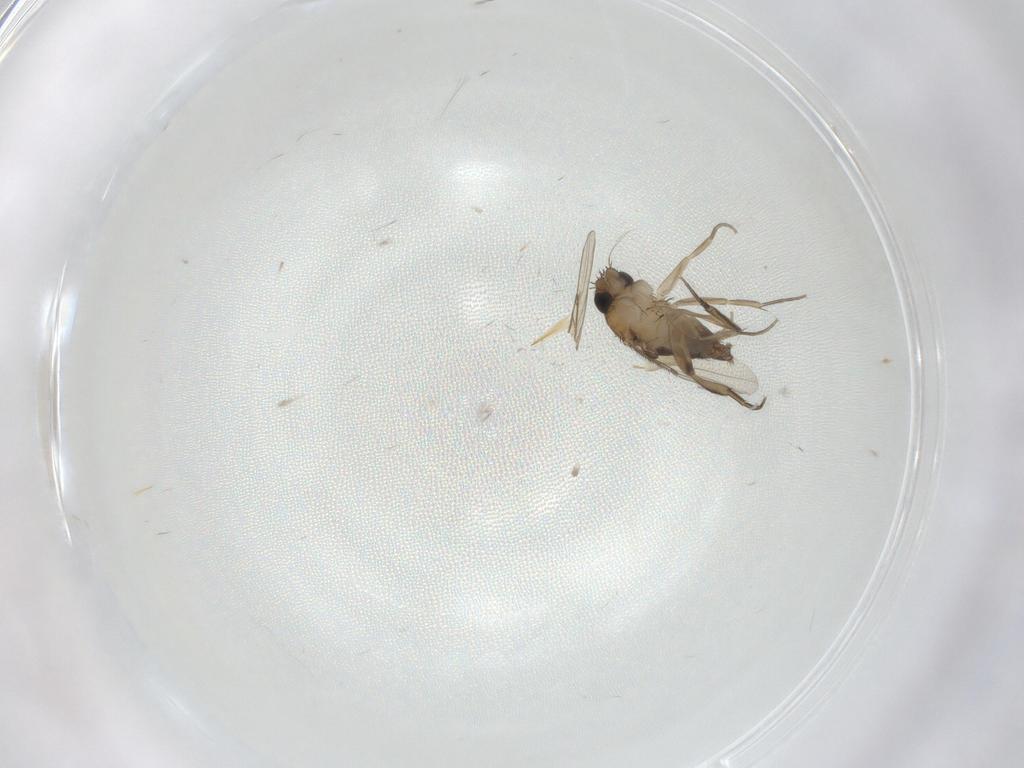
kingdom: Animalia
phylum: Arthropoda
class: Insecta
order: Diptera
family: Phoridae
